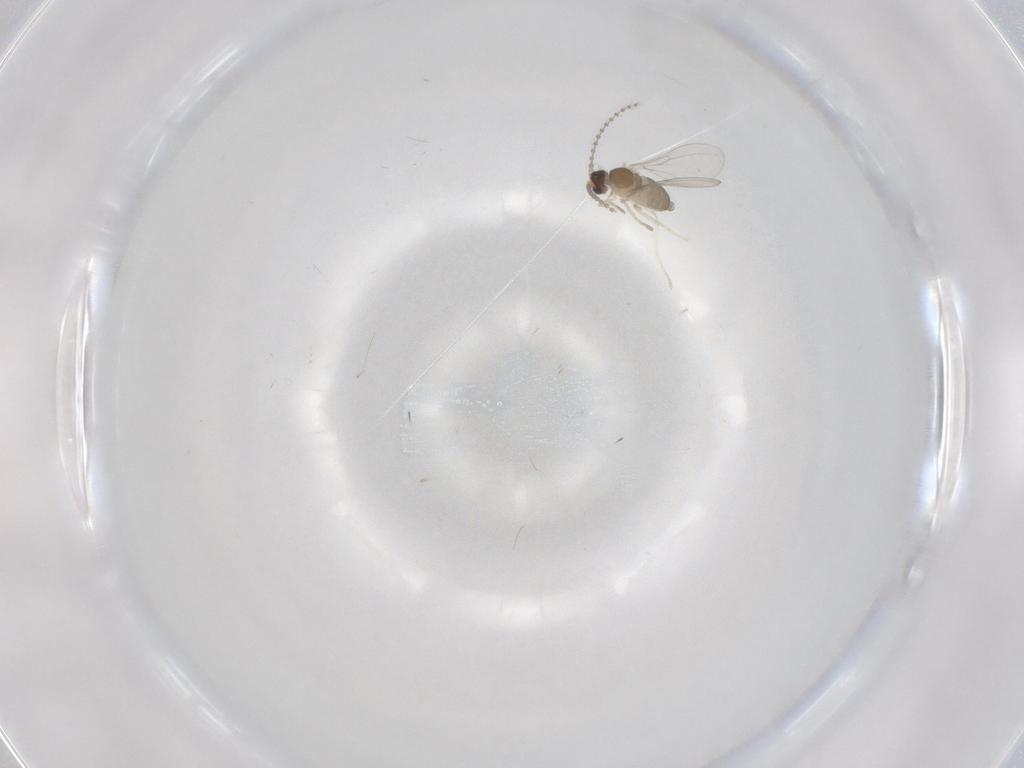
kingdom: Animalia
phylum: Arthropoda
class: Insecta
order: Diptera
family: Cecidomyiidae
